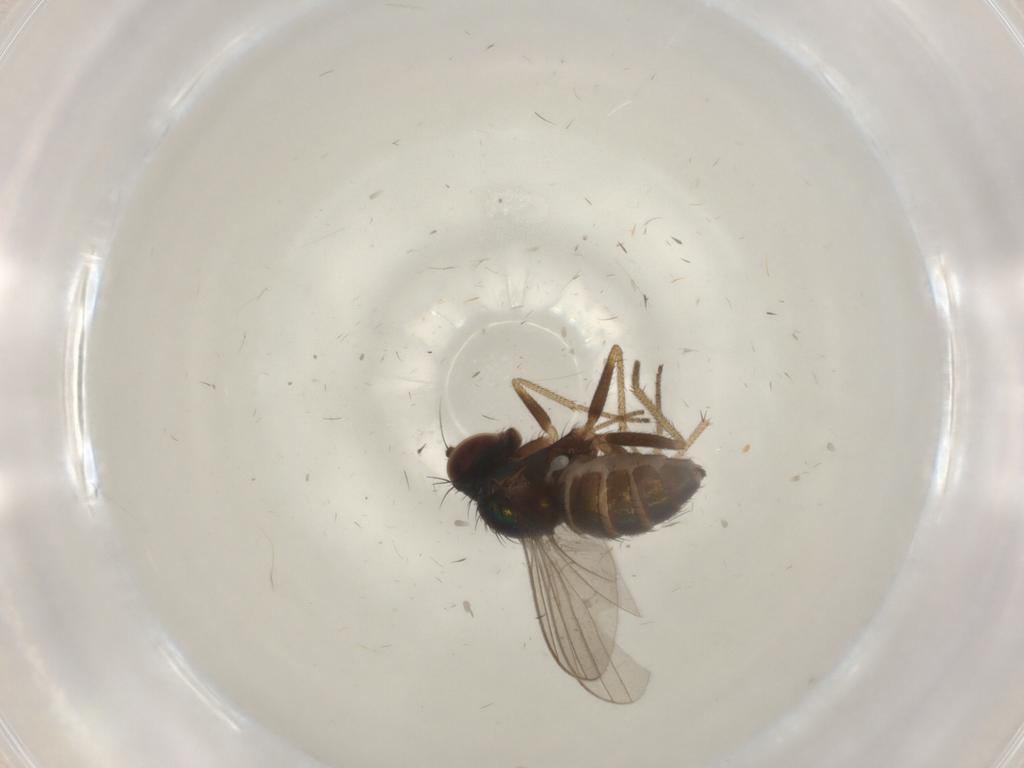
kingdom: Animalia
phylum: Arthropoda
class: Insecta
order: Diptera
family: Dolichopodidae
